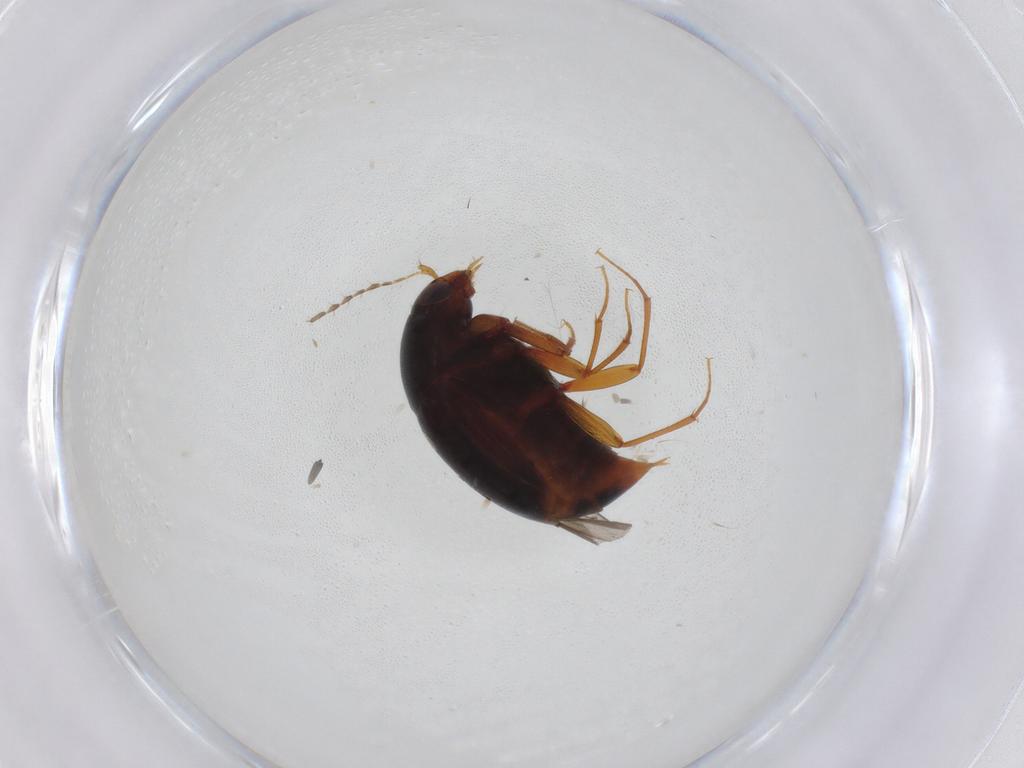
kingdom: Animalia
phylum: Arthropoda
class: Insecta
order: Coleoptera
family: Staphylinidae
